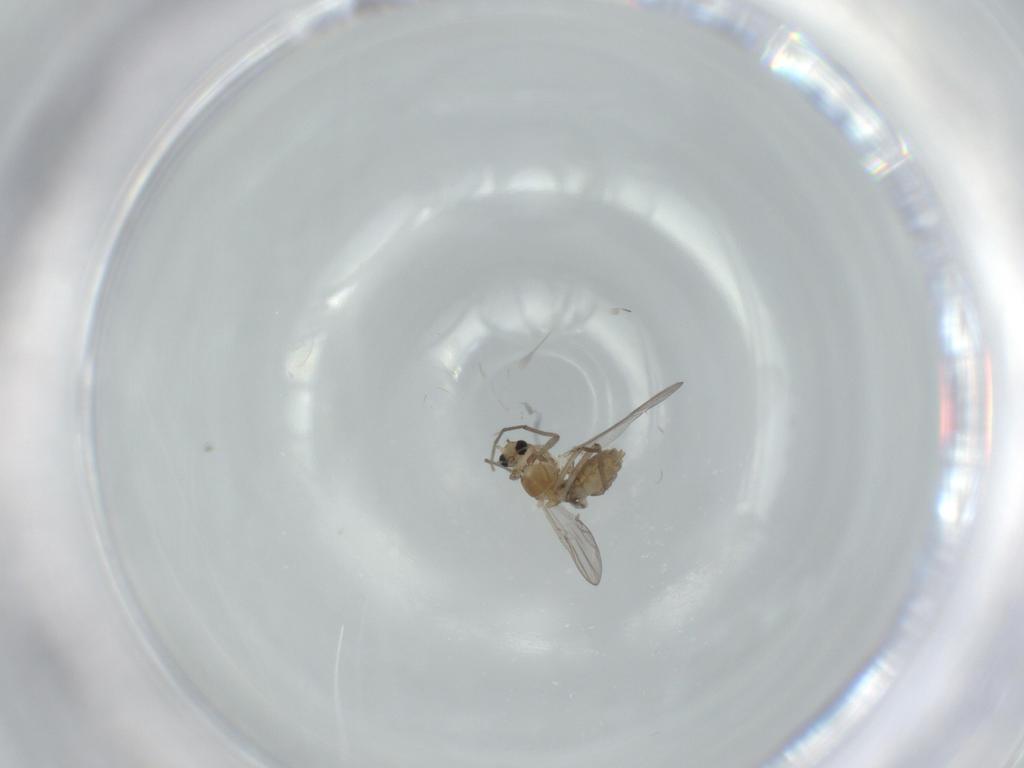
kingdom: Animalia
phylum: Arthropoda
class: Insecta
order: Diptera
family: Chironomidae
